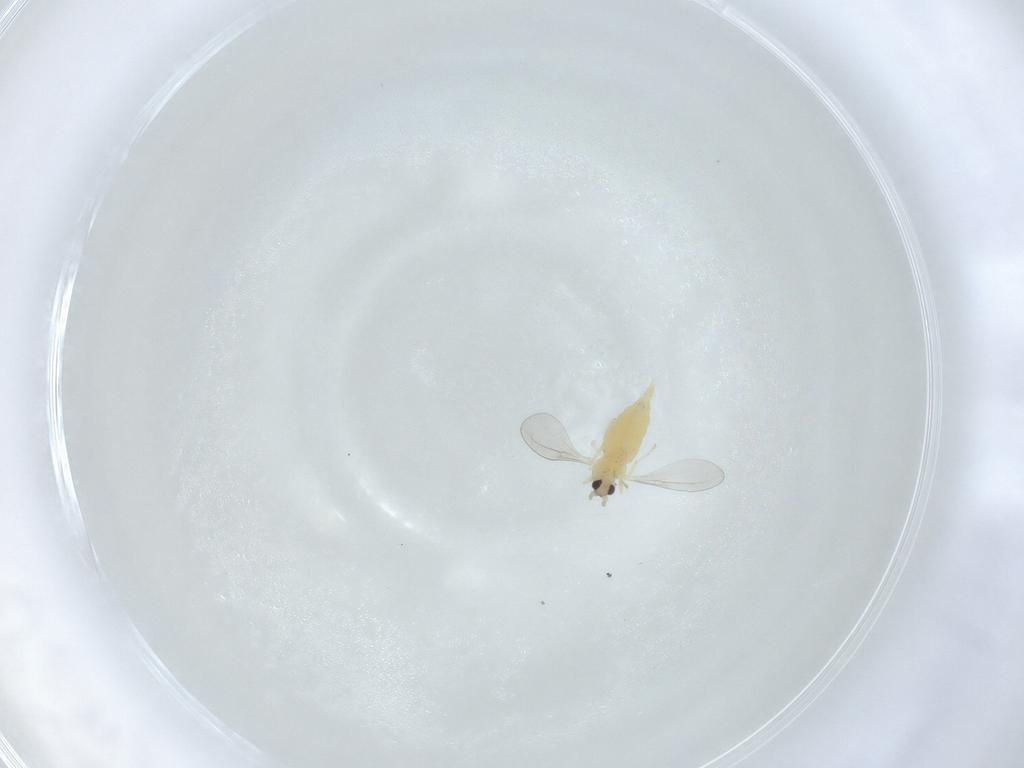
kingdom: Animalia
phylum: Arthropoda
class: Insecta
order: Diptera
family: Cecidomyiidae
